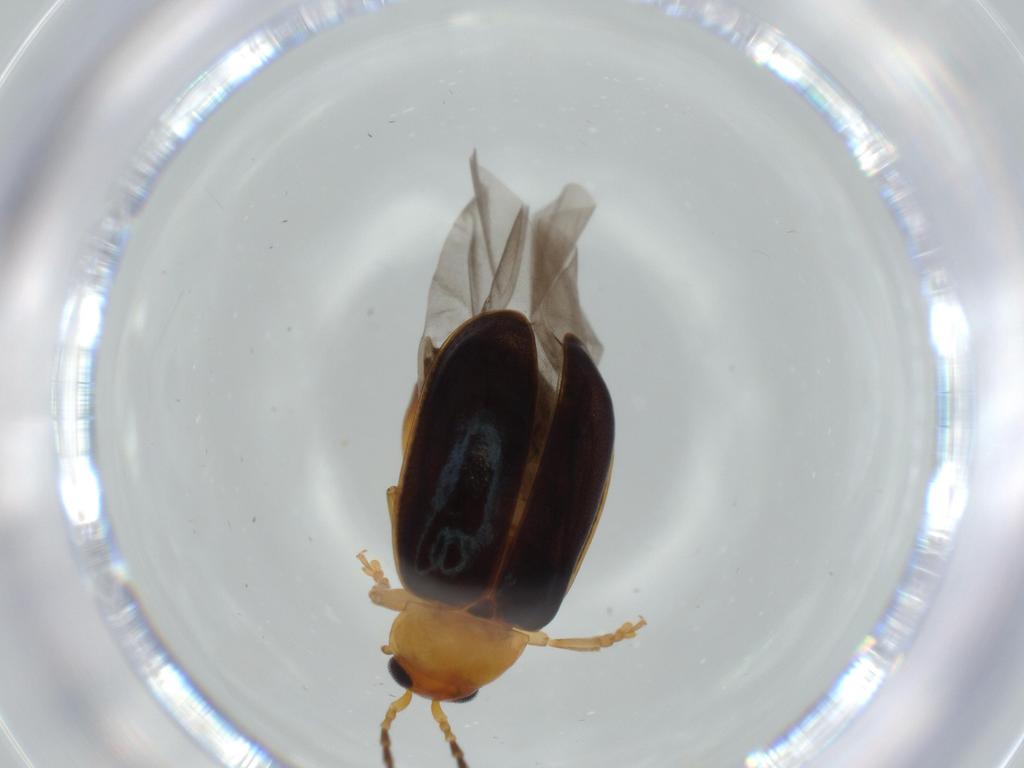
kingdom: Animalia
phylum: Arthropoda
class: Insecta
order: Coleoptera
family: Chrysomelidae
